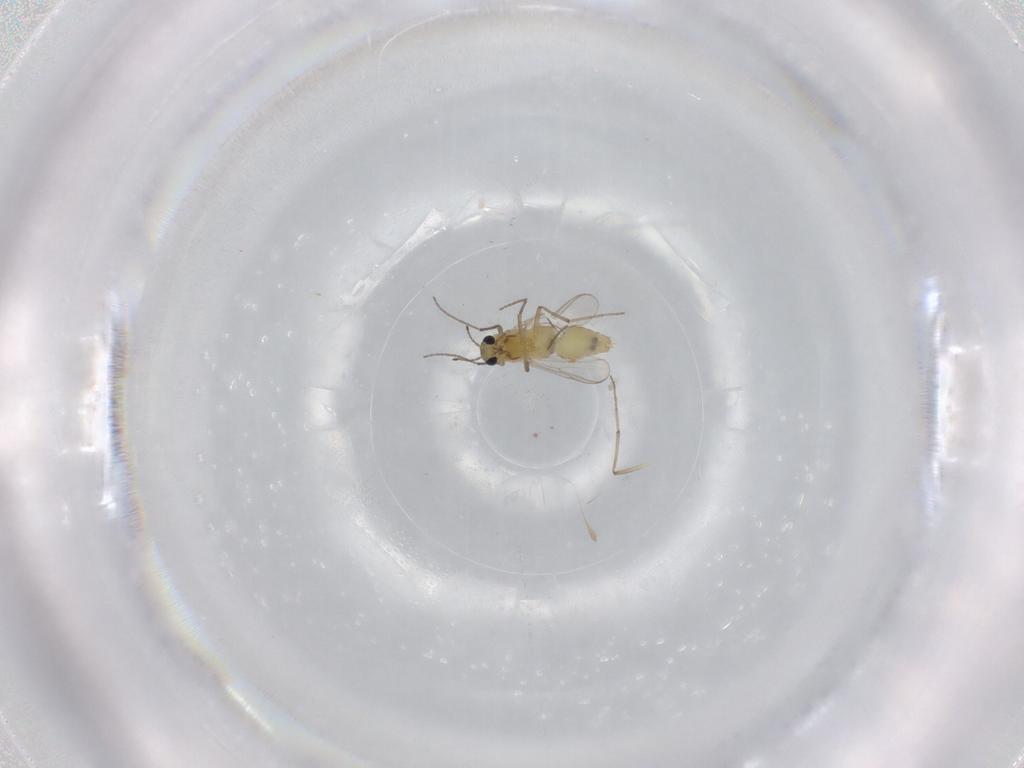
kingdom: Animalia
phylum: Arthropoda
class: Insecta
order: Diptera
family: Chironomidae
